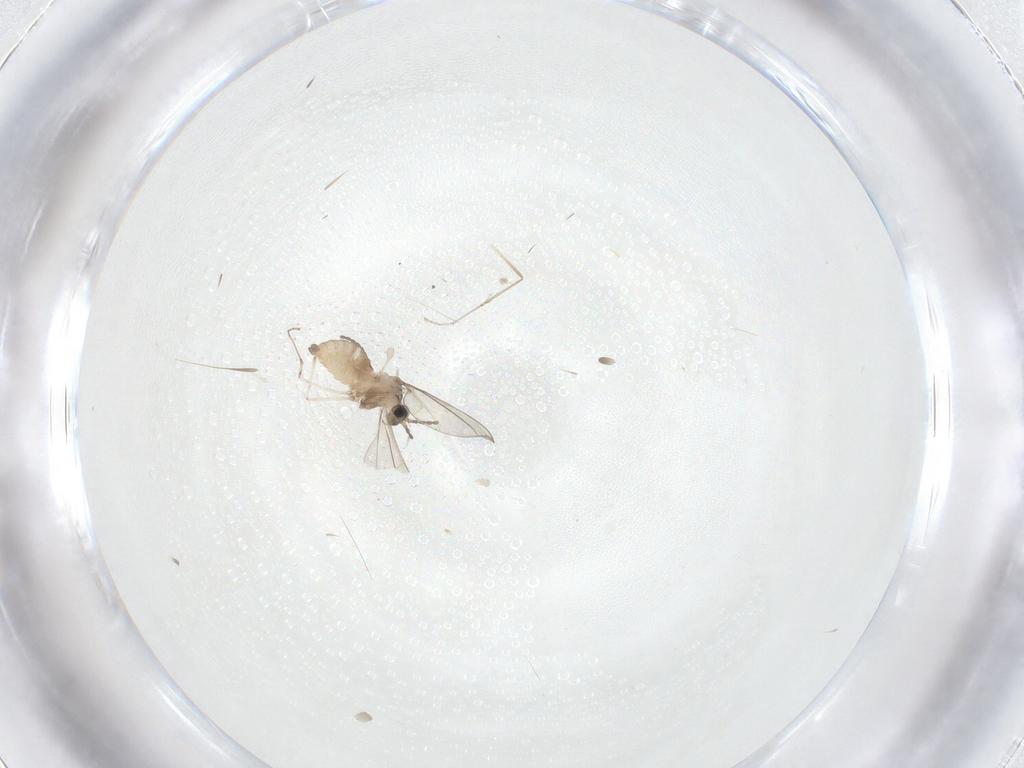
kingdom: Animalia
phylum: Arthropoda
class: Insecta
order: Diptera
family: Cecidomyiidae
